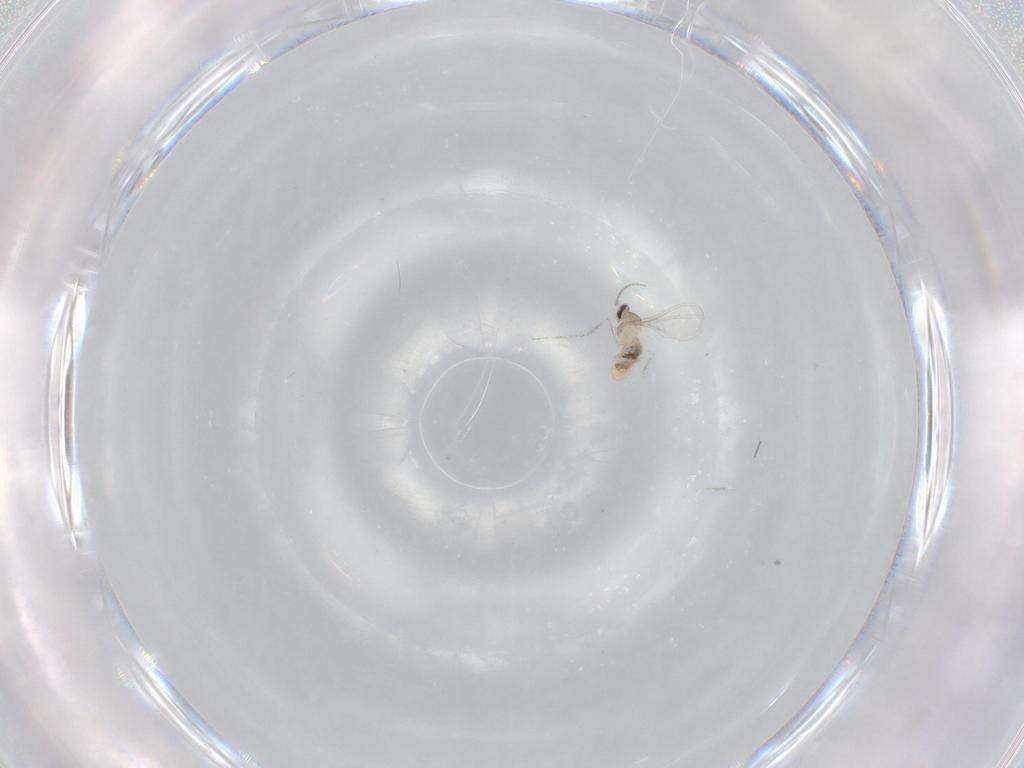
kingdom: Animalia
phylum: Arthropoda
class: Insecta
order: Diptera
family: Cecidomyiidae
